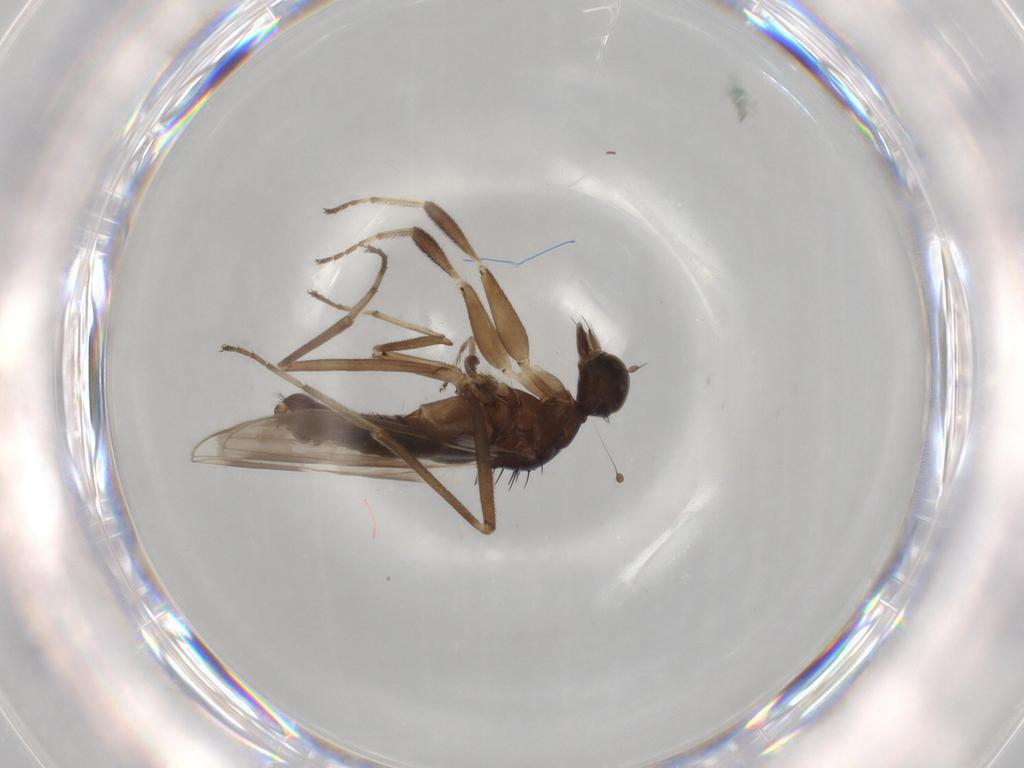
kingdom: Animalia
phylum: Arthropoda
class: Insecta
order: Diptera
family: Hybotidae
